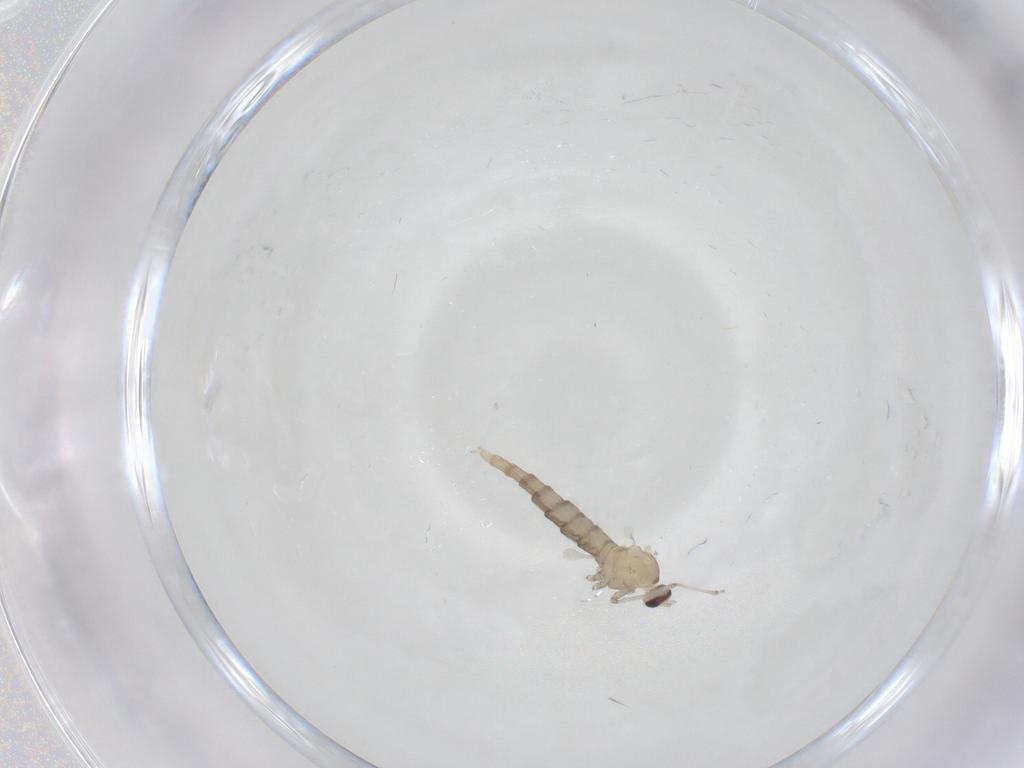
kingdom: Animalia
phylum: Arthropoda
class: Insecta
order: Diptera
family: Cecidomyiidae
